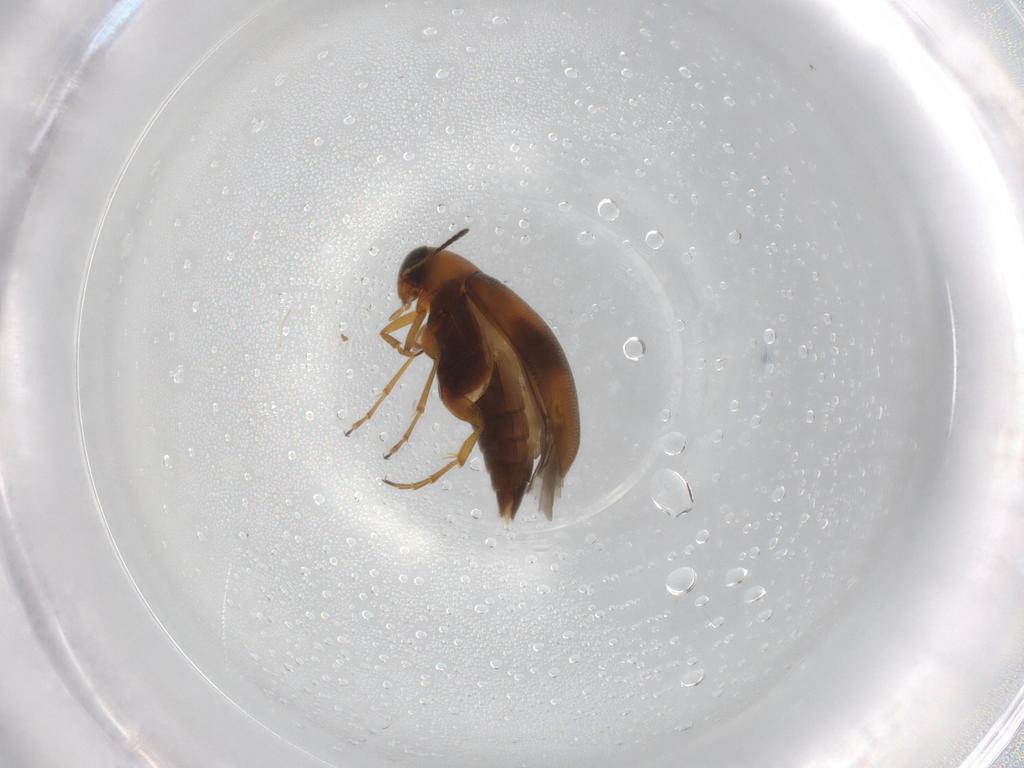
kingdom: Animalia
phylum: Arthropoda
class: Insecta
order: Coleoptera
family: Scraptiidae
